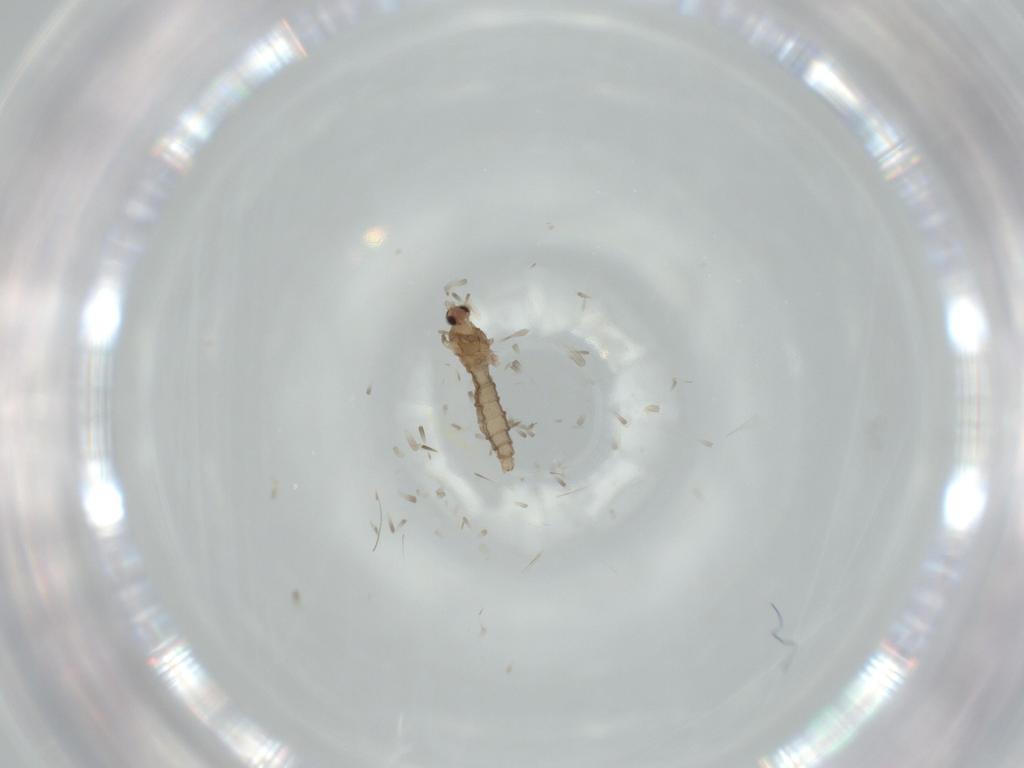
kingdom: Animalia
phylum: Arthropoda
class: Insecta
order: Diptera
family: Cecidomyiidae
